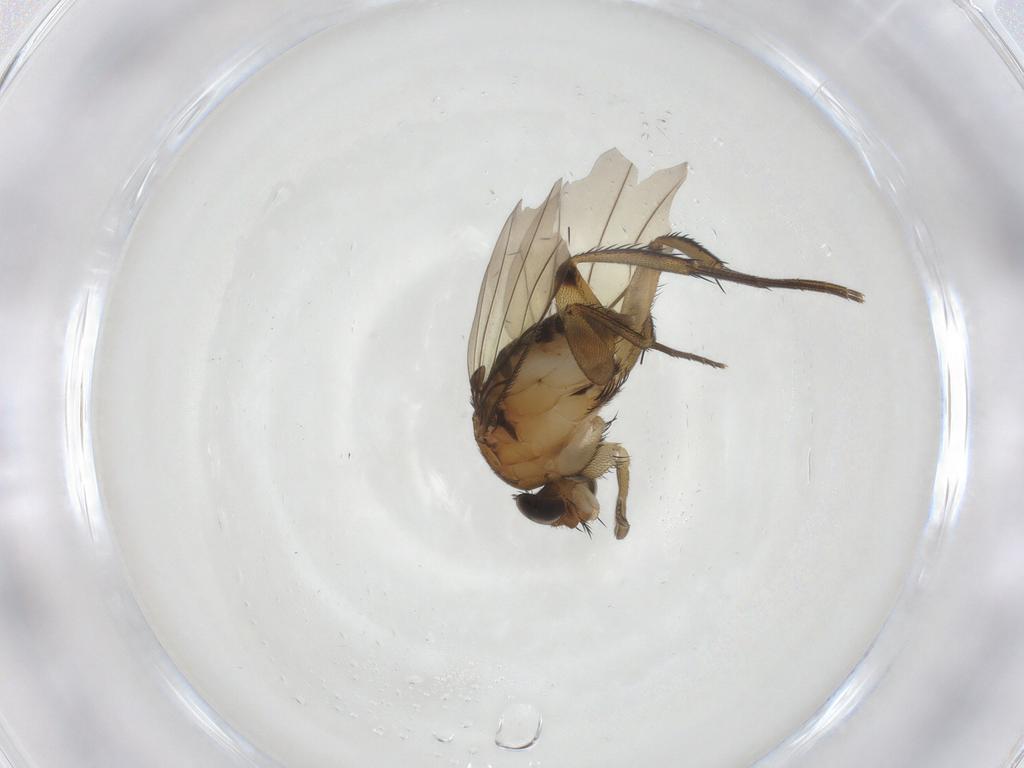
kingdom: Animalia
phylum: Arthropoda
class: Insecta
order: Diptera
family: Phoridae
